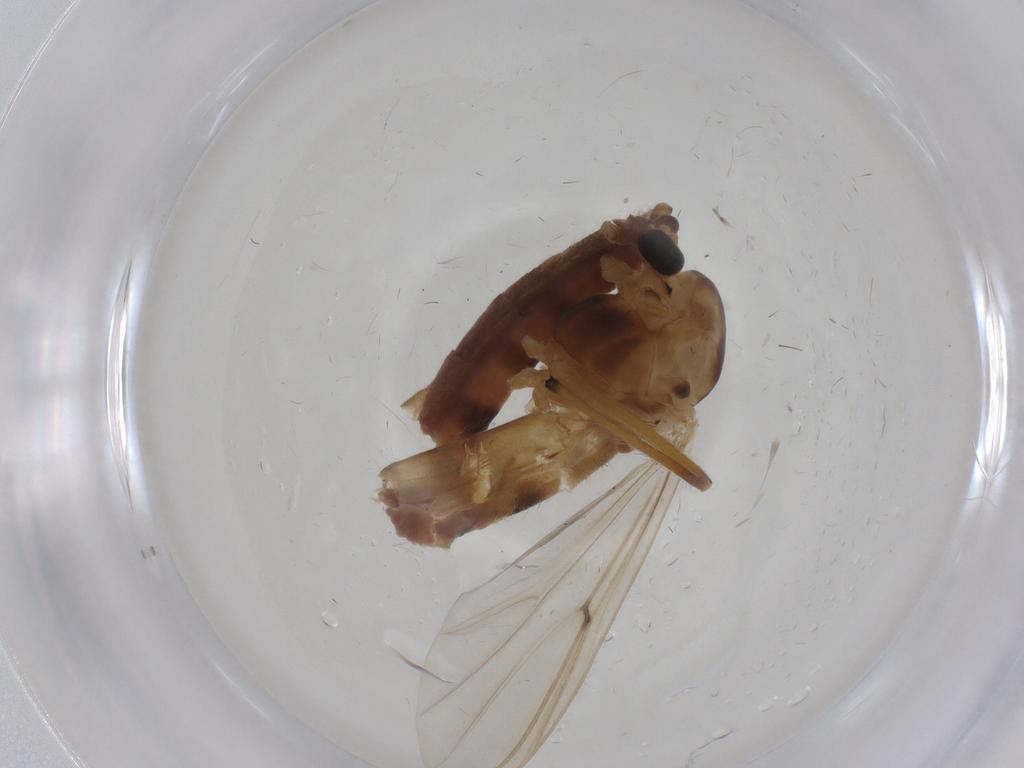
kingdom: Animalia
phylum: Arthropoda
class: Insecta
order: Diptera
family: Chironomidae
